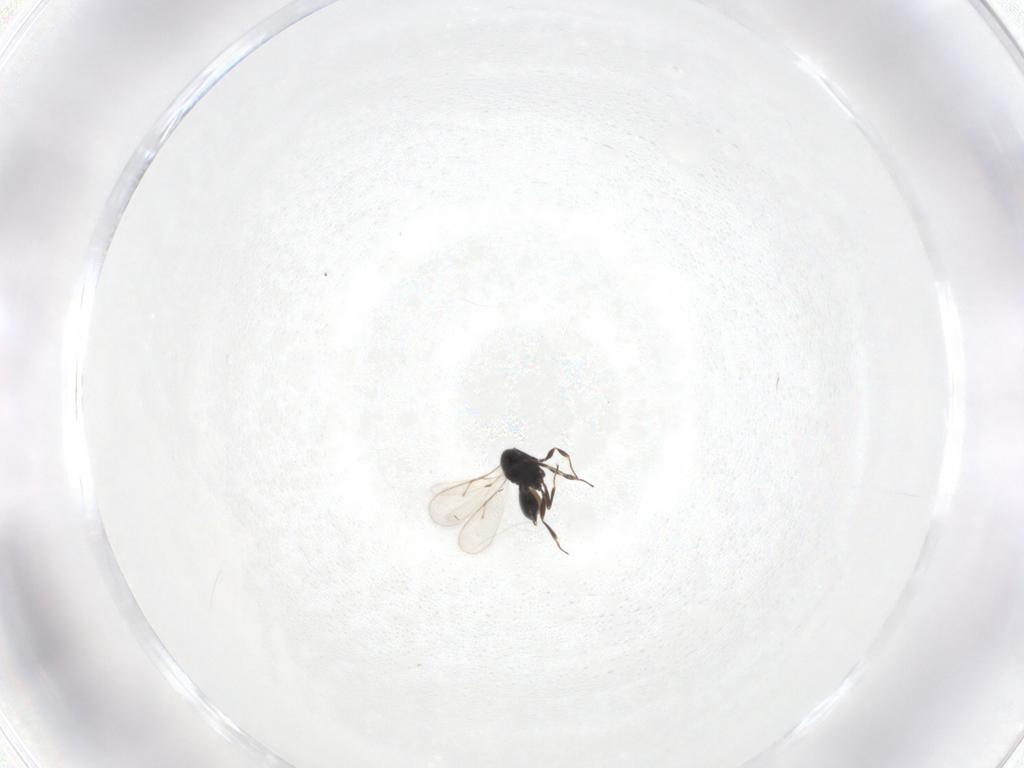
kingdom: Animalia
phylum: Arthropoda
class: Insecta
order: Hymenoptera
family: Scelionidae
